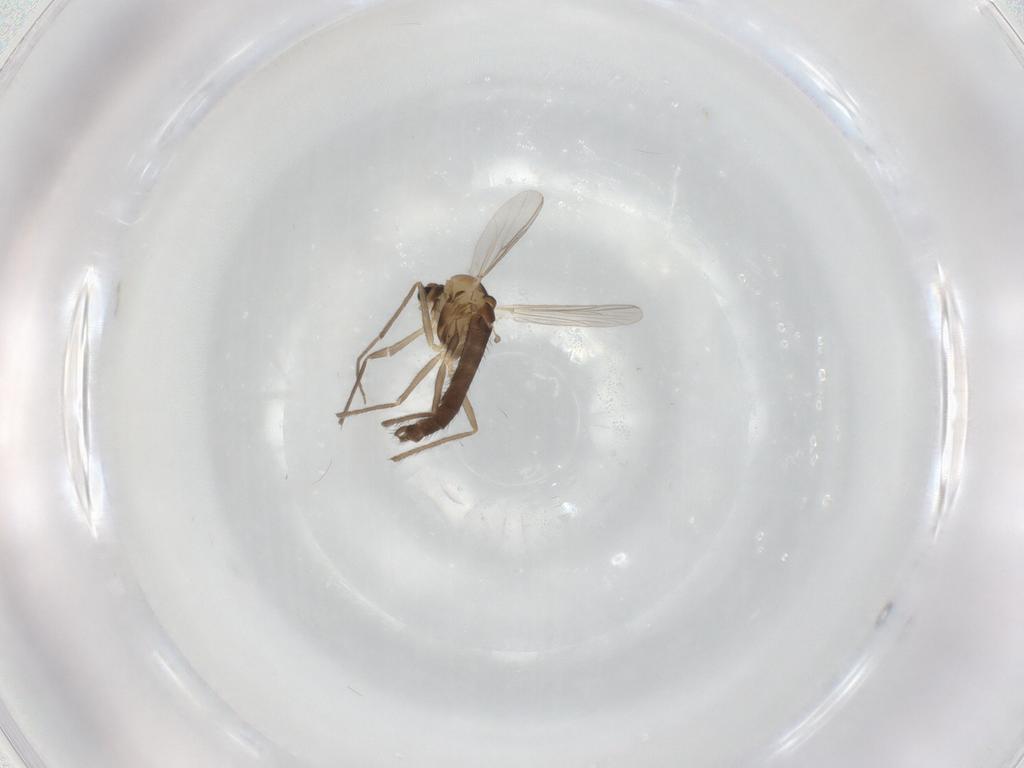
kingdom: Animalia
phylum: Arthropoda
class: Insecta
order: Diptera
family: Chironomidae
